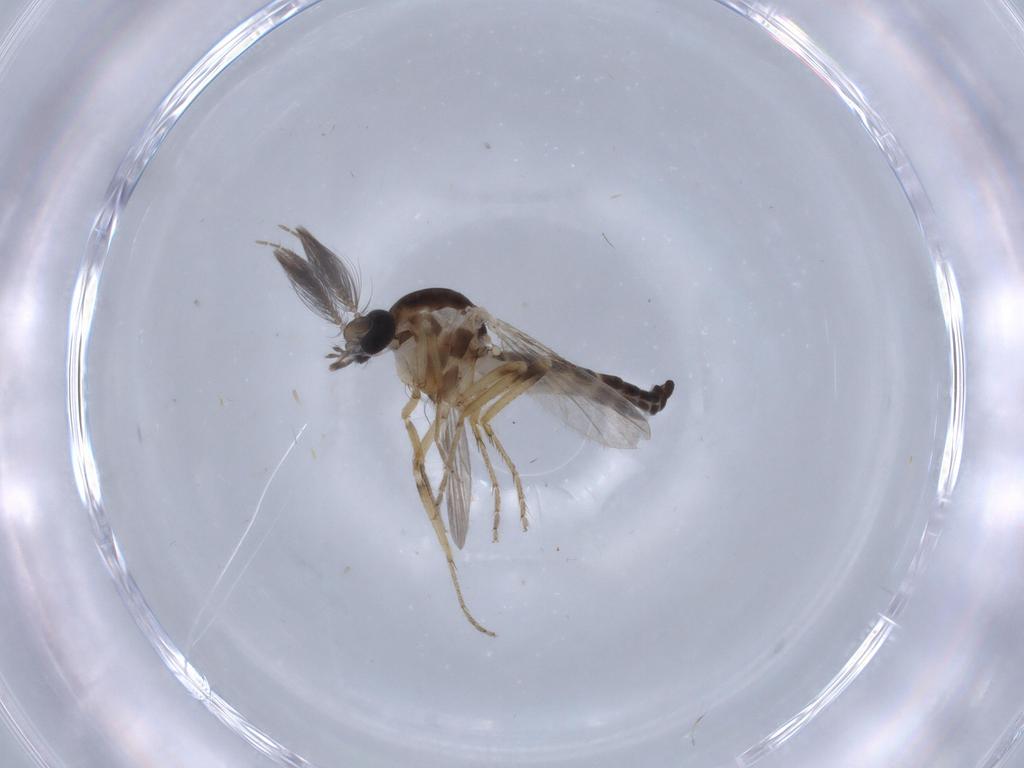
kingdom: Animalia
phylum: Arthropoda
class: Insecta
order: Diptera
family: Ceratopogonidae
